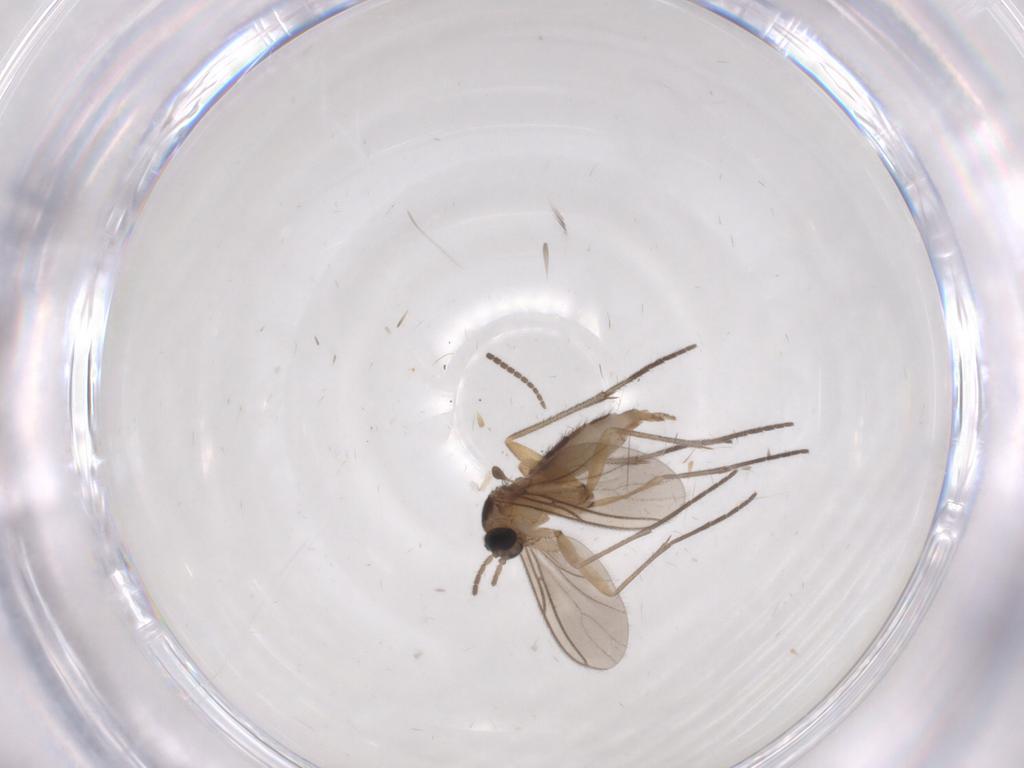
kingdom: Animalia
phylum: Arthropoda
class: Insecta
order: Diptera
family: Sciaridae
